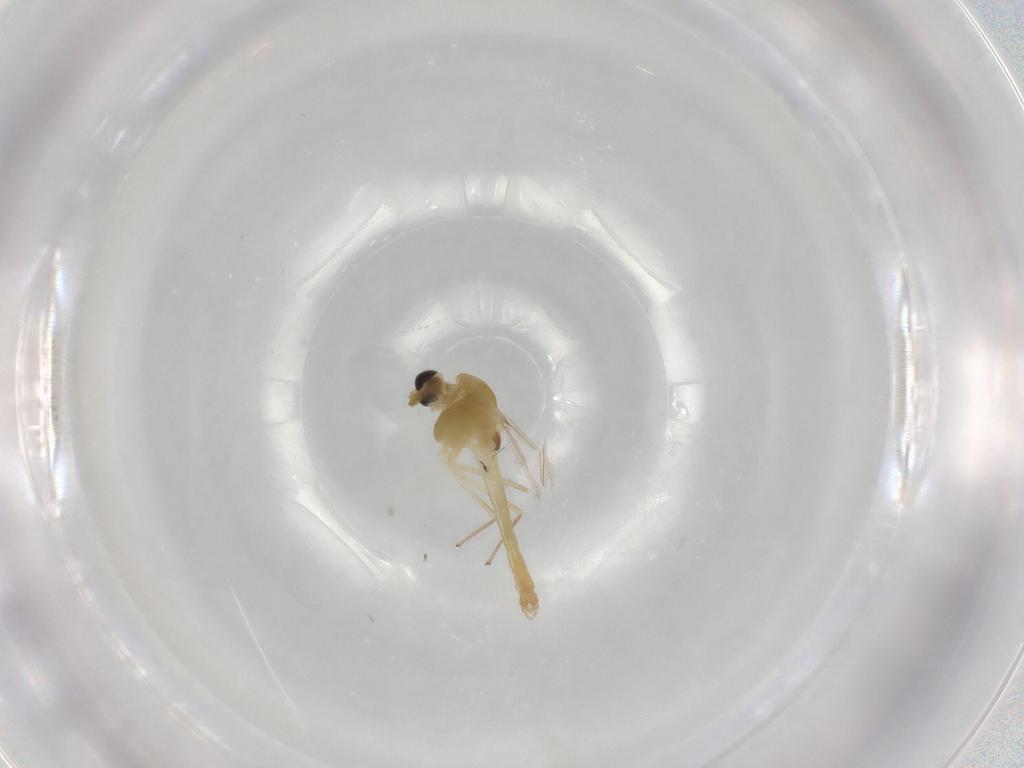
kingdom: Animalia
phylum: Arthropoda
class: Insecta
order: Diptera
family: Chironomidae
